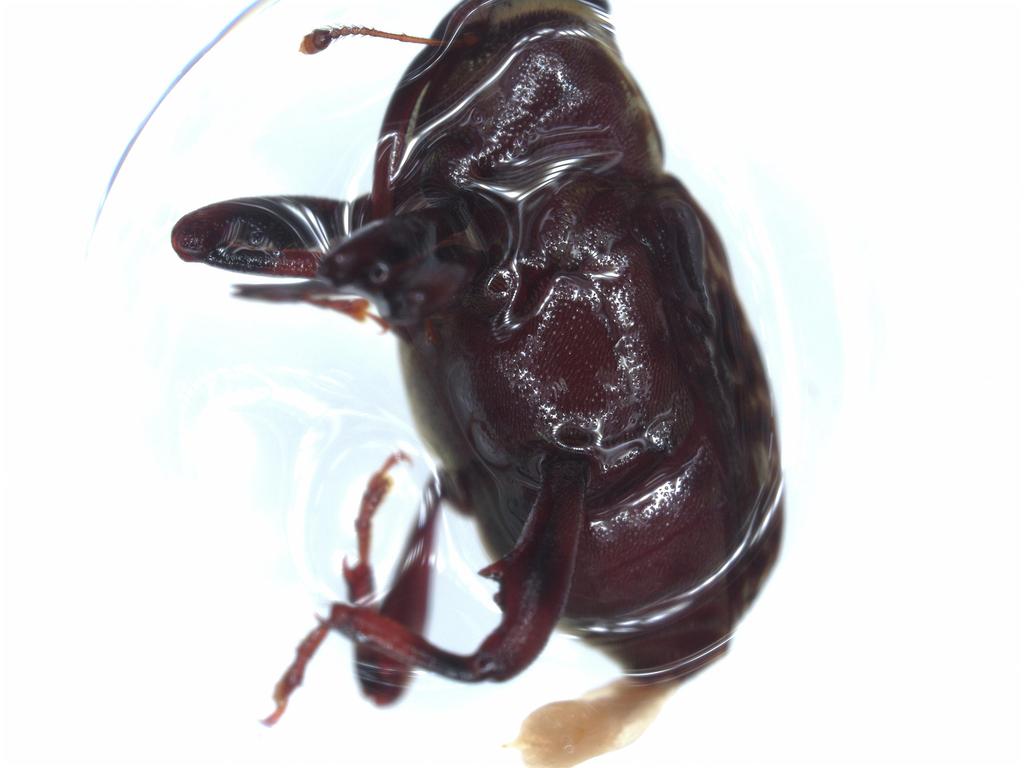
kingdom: Animalia
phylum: Arthropoda
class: Insecta
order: Coleoptera
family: Curculionidae
